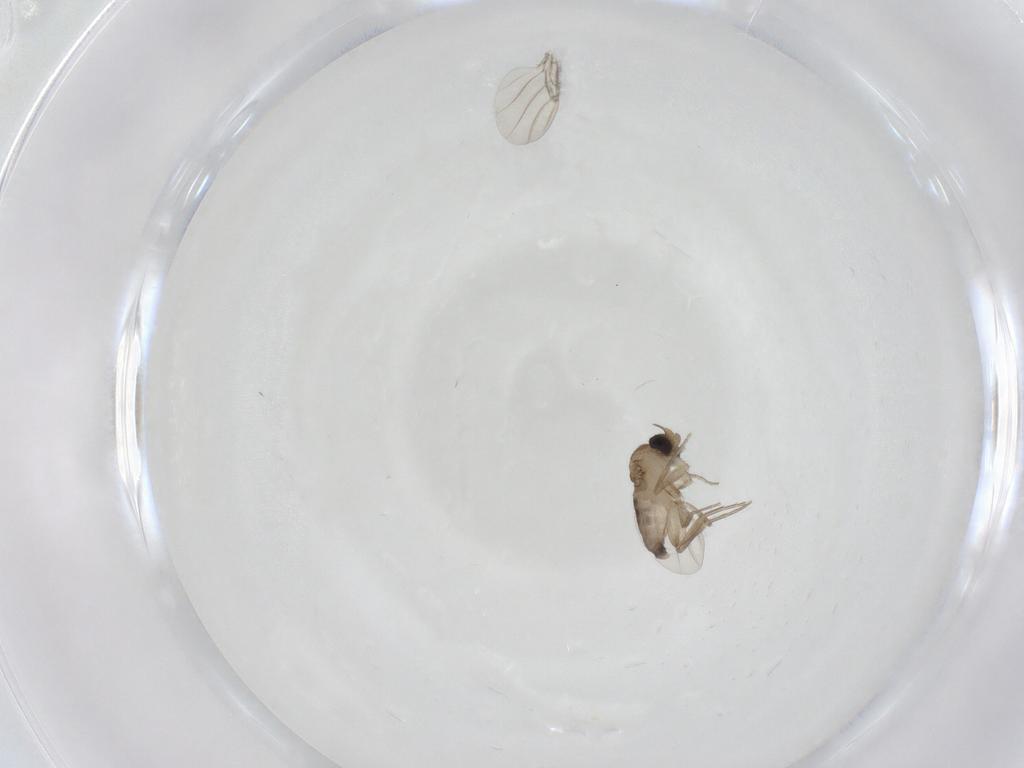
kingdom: Animalia
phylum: Arthropoda
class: Insecta
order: Diptera
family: Phoridae
